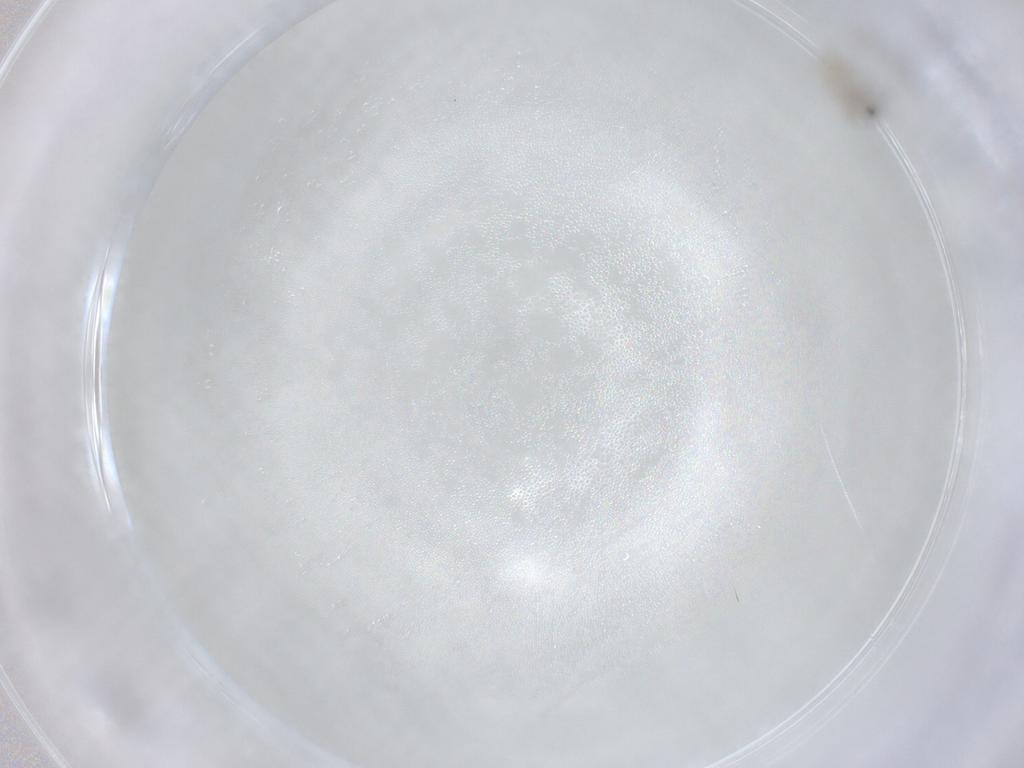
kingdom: Animalia
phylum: Arthropoda
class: Insecta
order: Diptera
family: Cecidomyiidae
